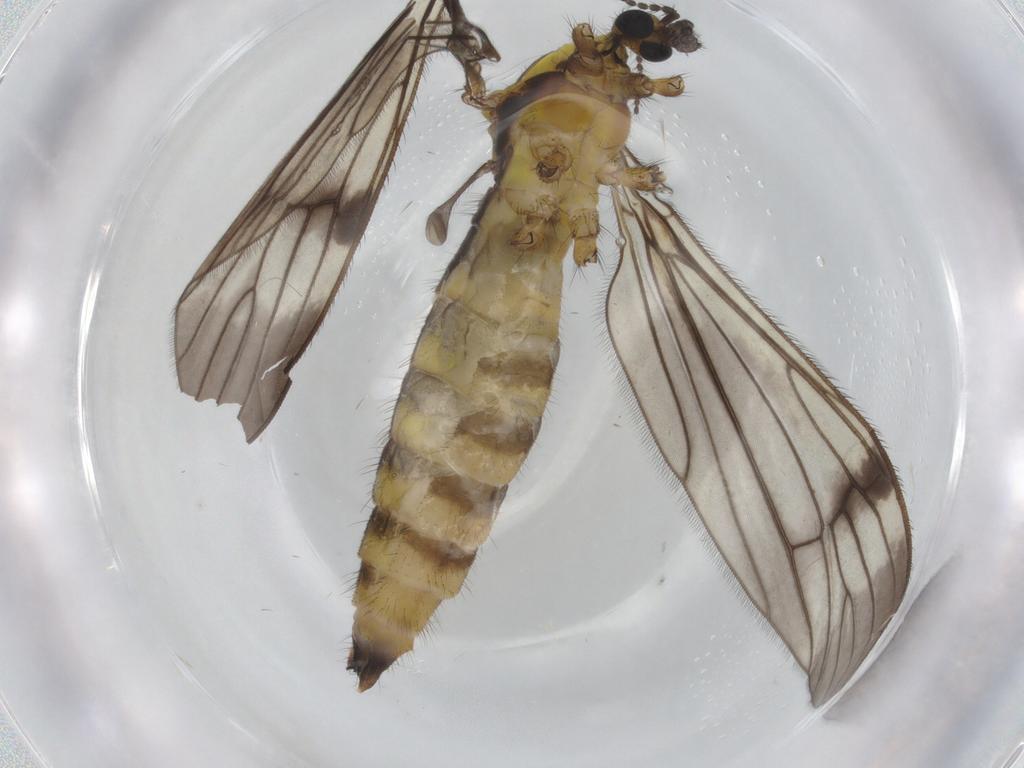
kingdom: Animalia
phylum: Arthropoda
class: Insecta
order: Diptera
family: Limoniidae
